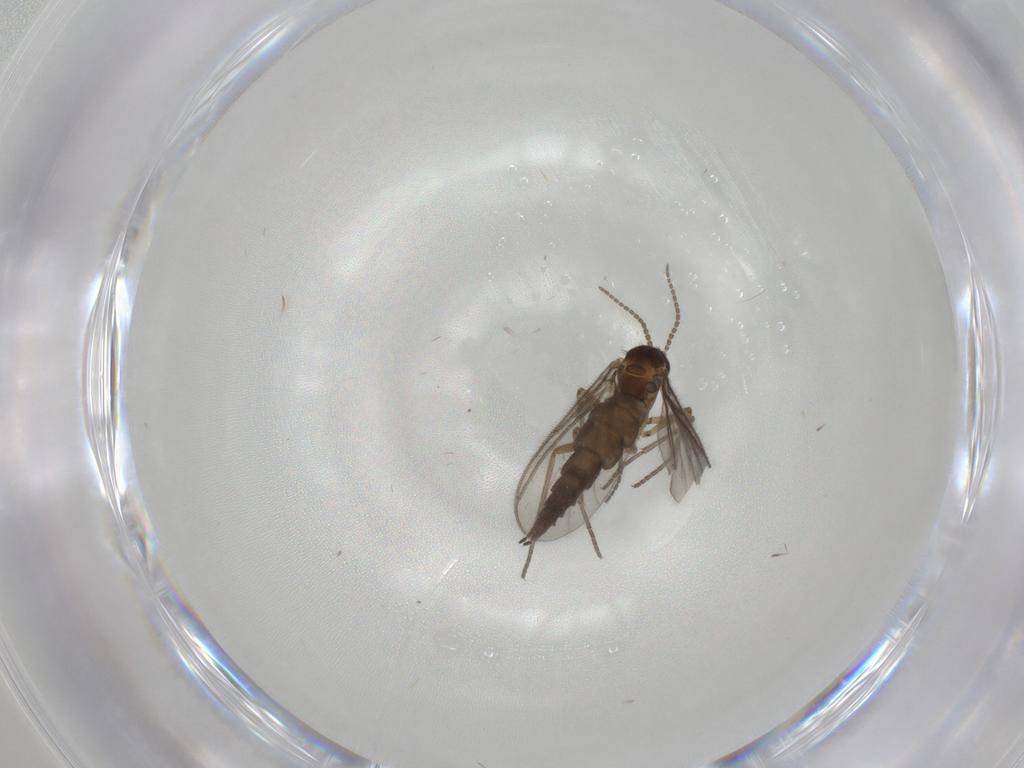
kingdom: Animalia
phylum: Arthropoda
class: Insecta
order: Diptera
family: Sciaridae
